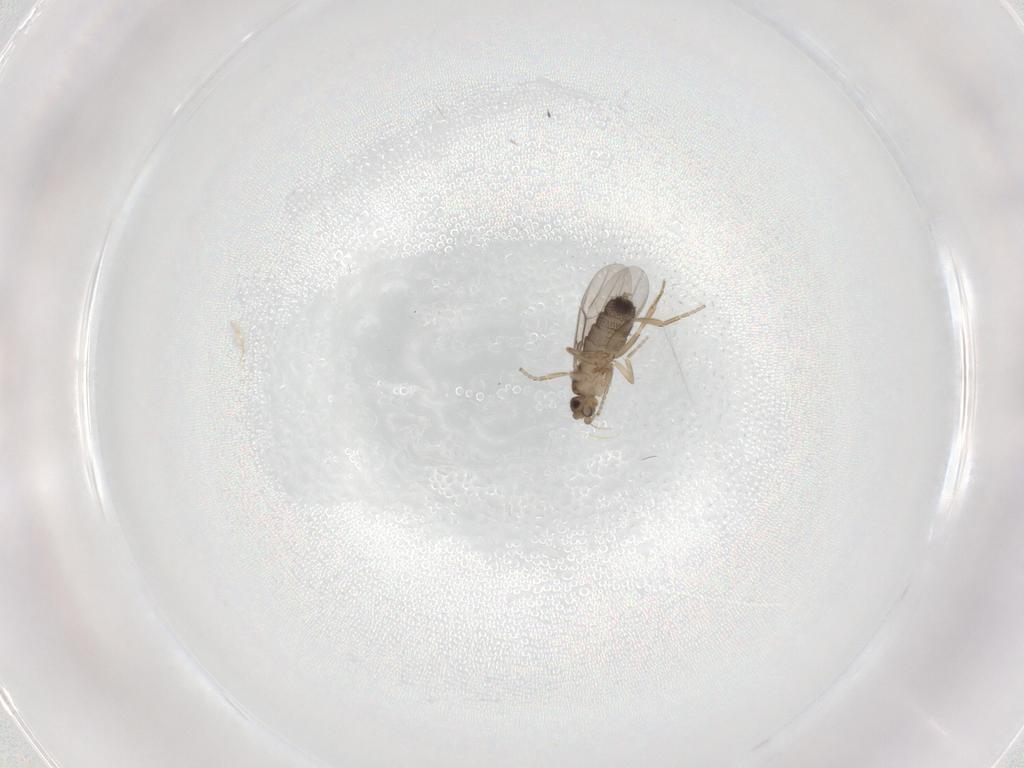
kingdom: Animalia
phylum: Arthropoda
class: Insecta
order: Diptera
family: Phoridae
